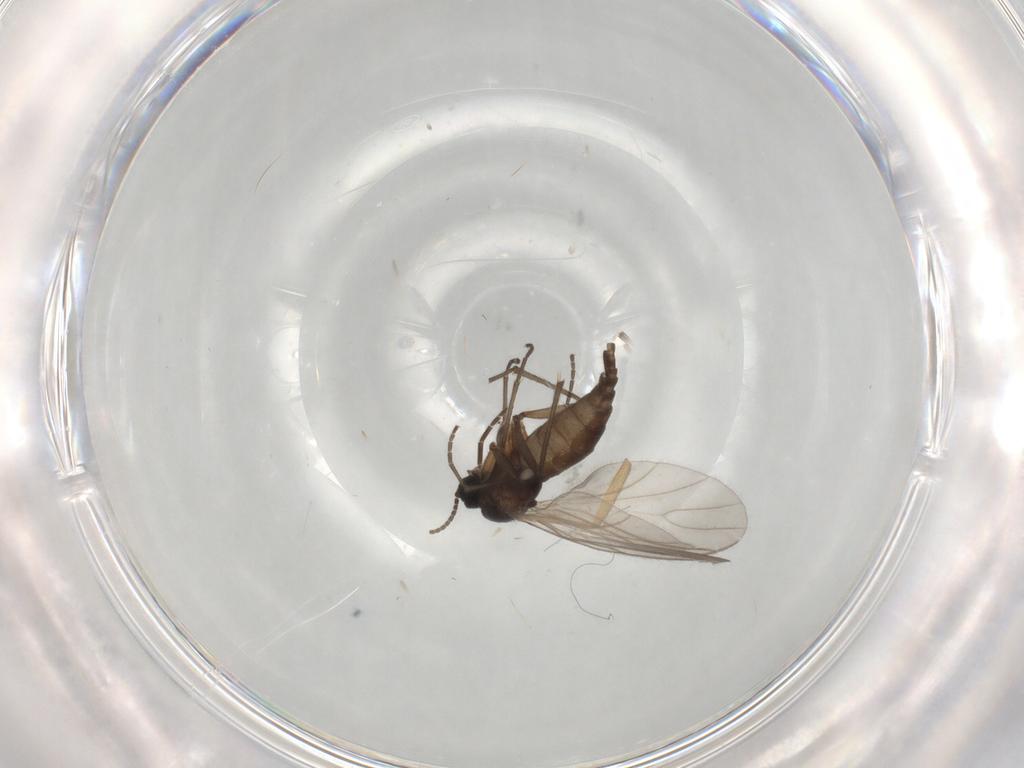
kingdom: Animalia
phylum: Arthropoda
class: Insecta
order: Diptera
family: Sciaridae
